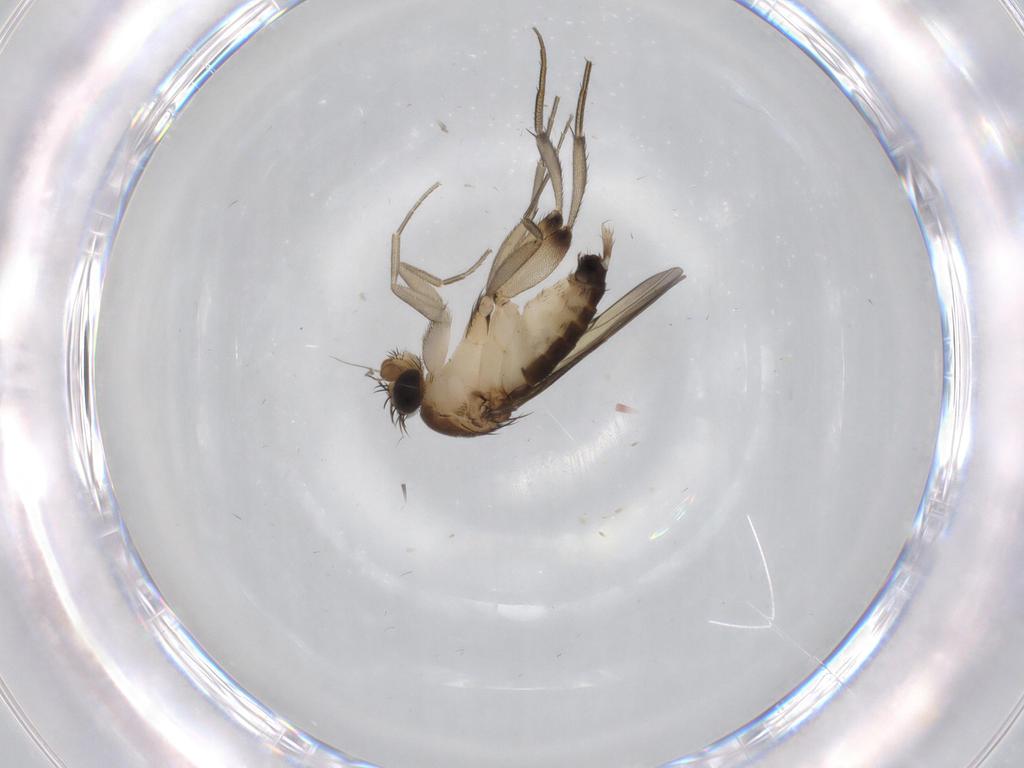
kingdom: Animalia
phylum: Arthropoda
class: Insecta
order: Diptera
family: Phoridae
